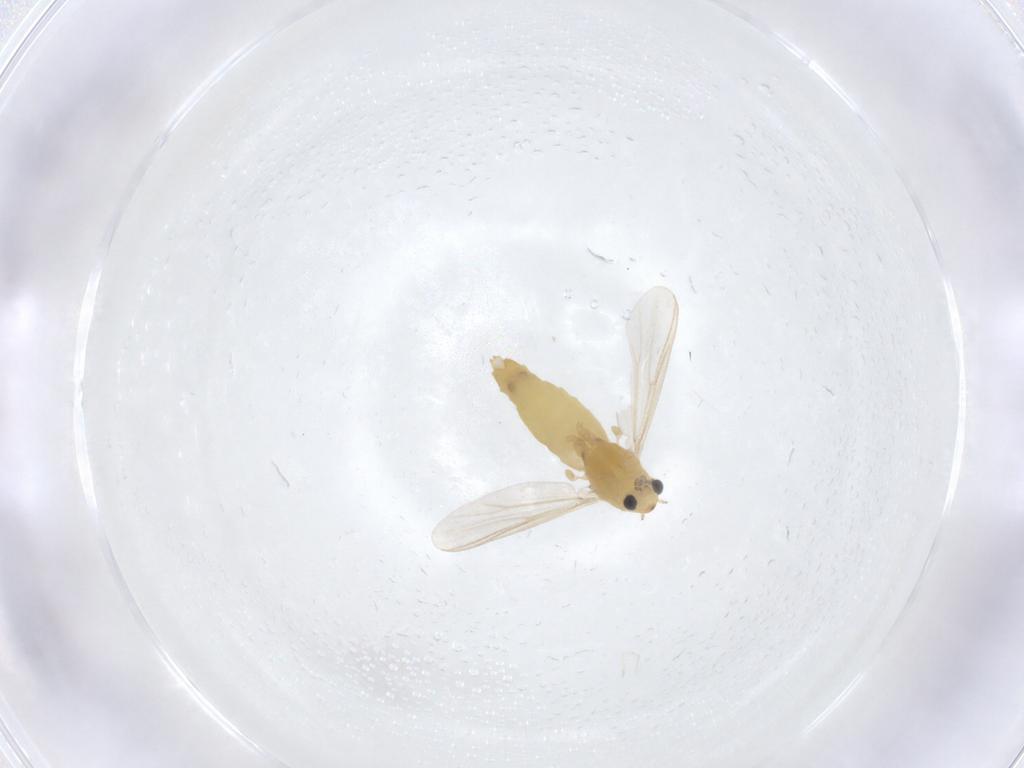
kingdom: Animalia
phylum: Arthropoda
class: Insecta
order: Diptera
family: Chironomidae
